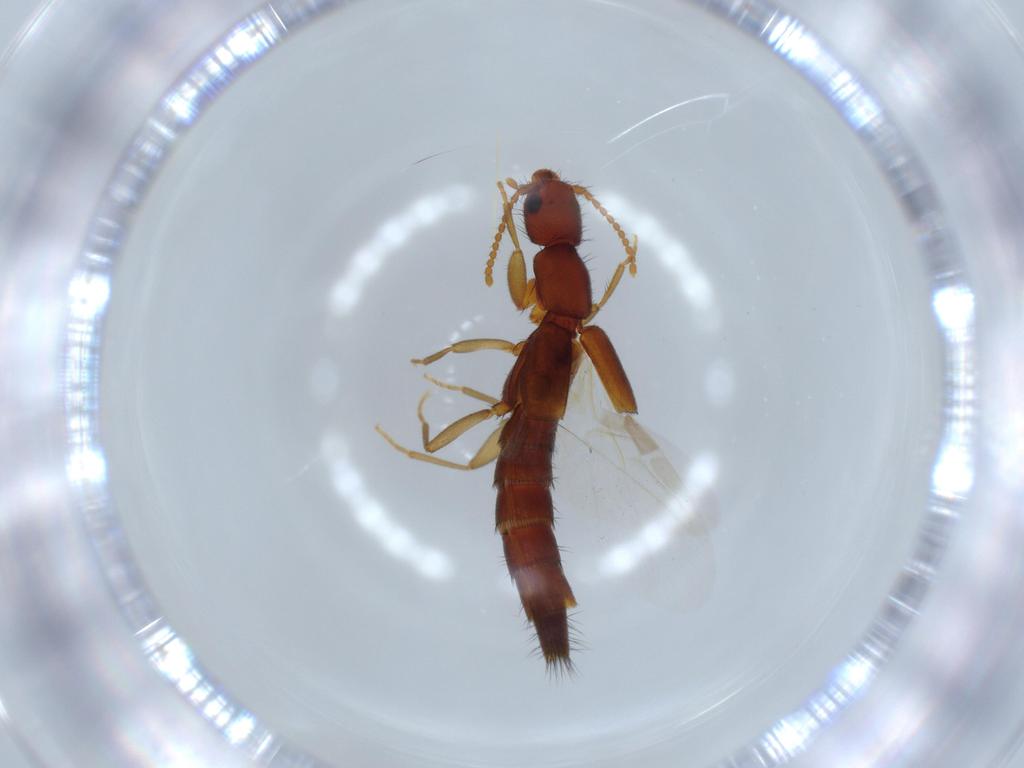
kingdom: Animalia
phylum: Arthropoda
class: Insecta
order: Coleoptera
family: Staphylinidae
